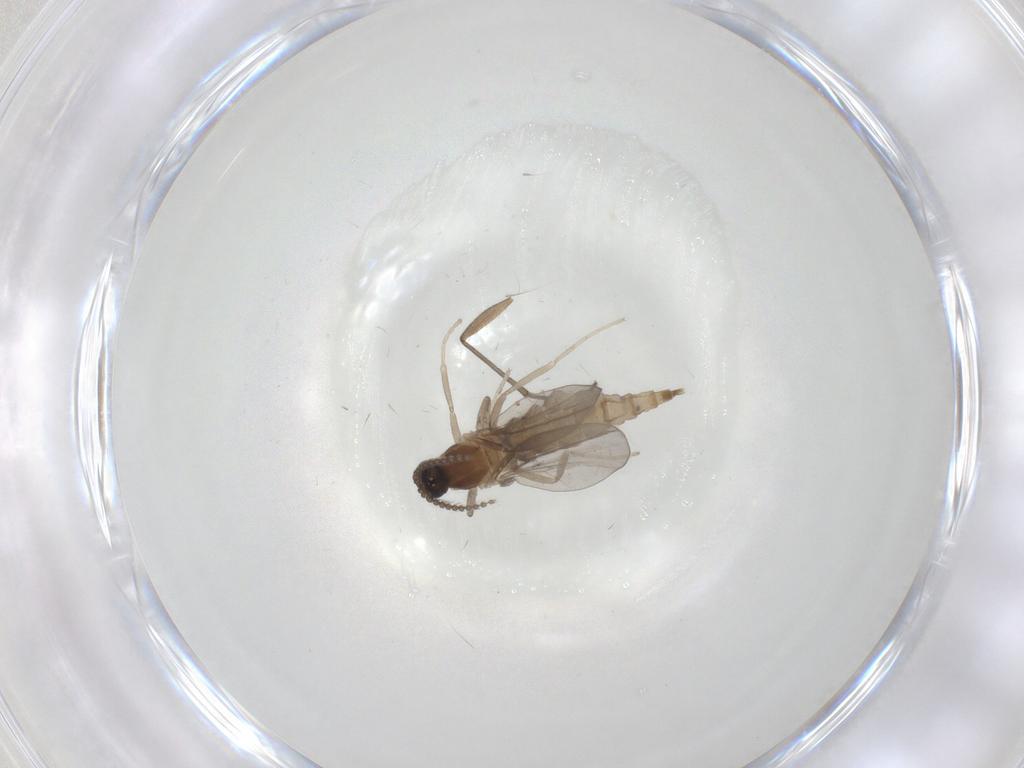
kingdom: Animalia
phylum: Arthropoda
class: Insecta
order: Diptera
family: Cecidomyiidae
